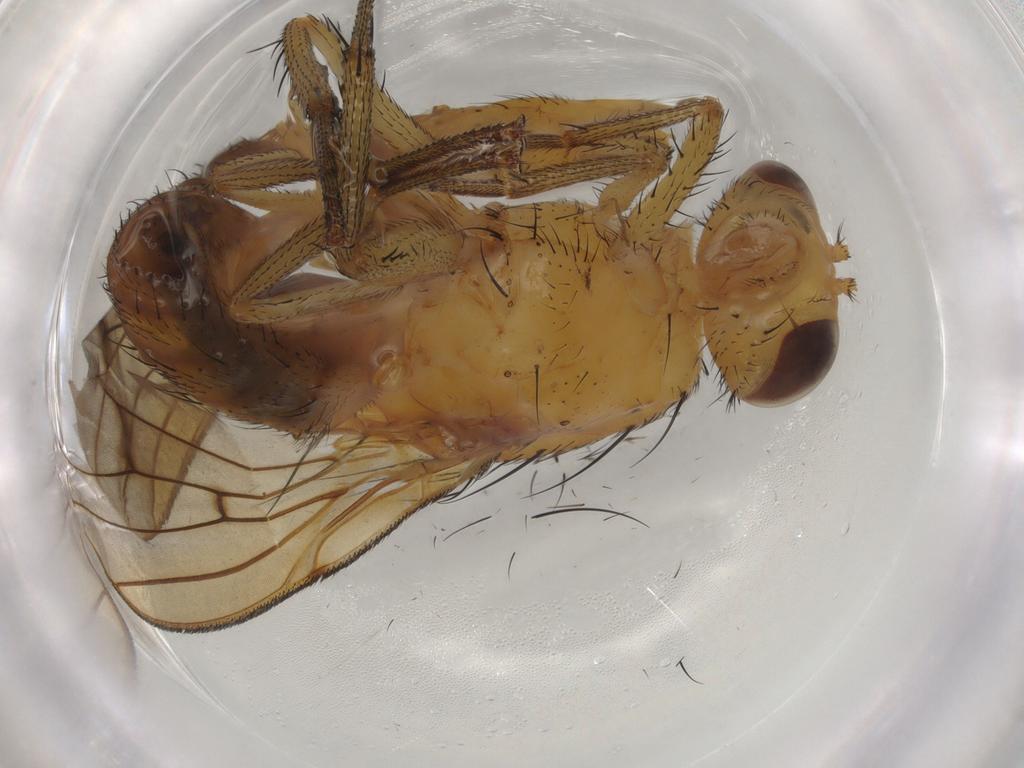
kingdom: Animalia
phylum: Arthropoda
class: Insecta
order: Diptera
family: Lauxaniidae
